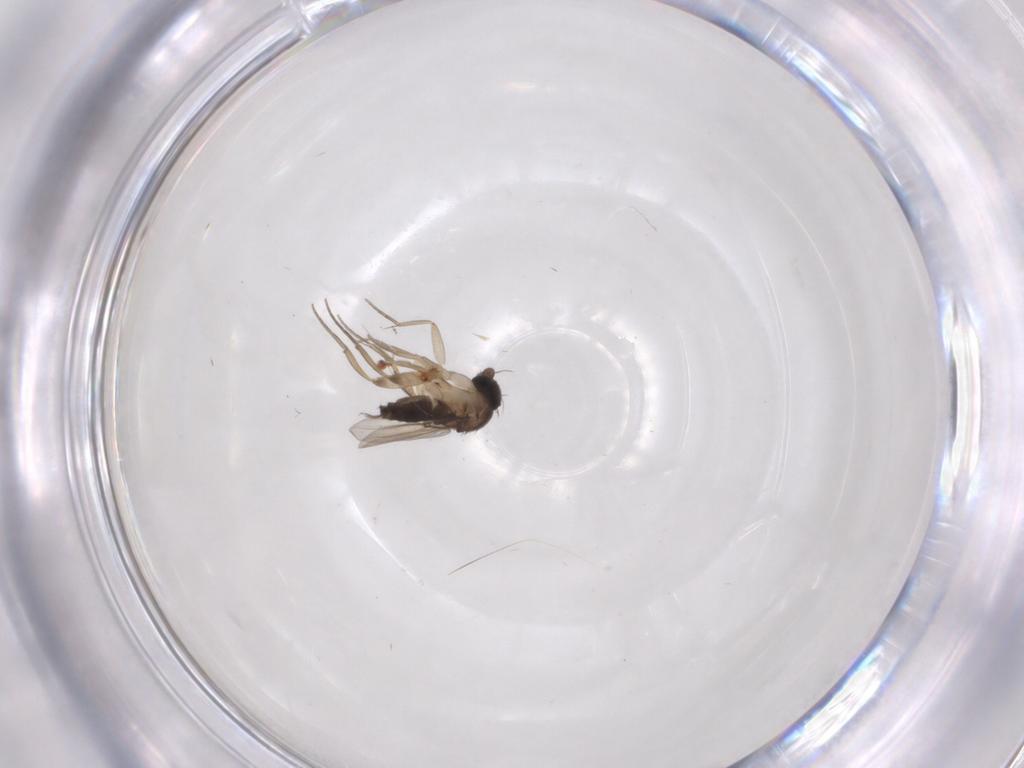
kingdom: Animalia
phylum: Arthropoda
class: Insecta
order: Diptera
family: Phoridae
